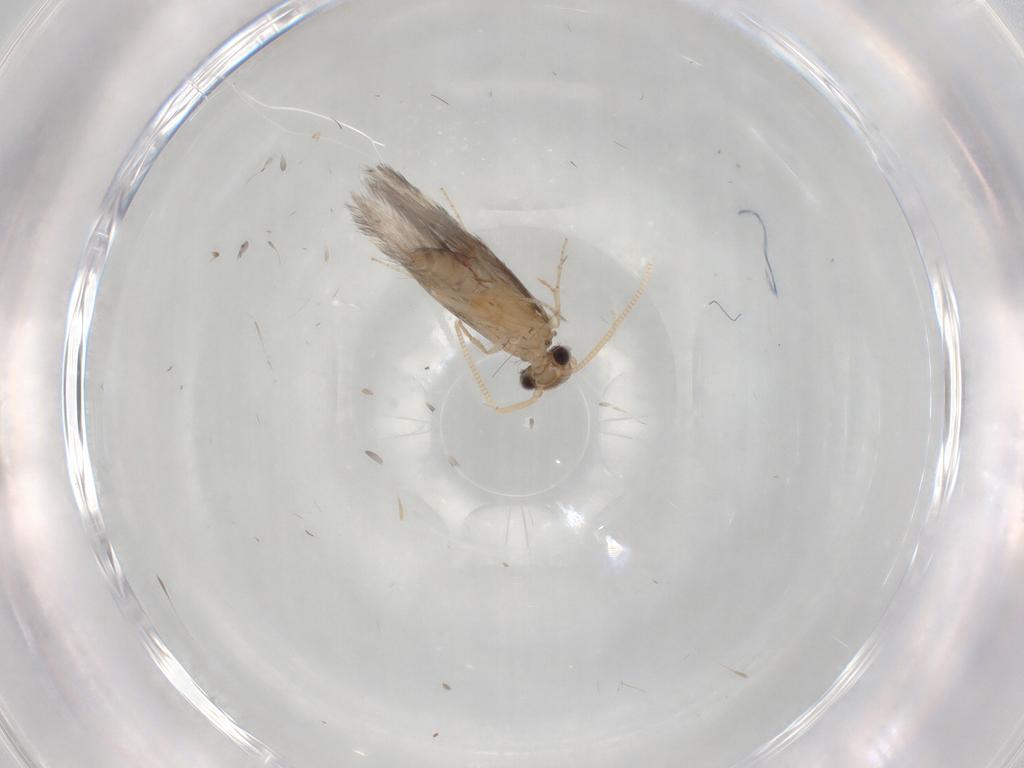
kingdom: Animalia
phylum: Arthropoda
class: Insecta
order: Trichoptera
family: Hydroptilidae
